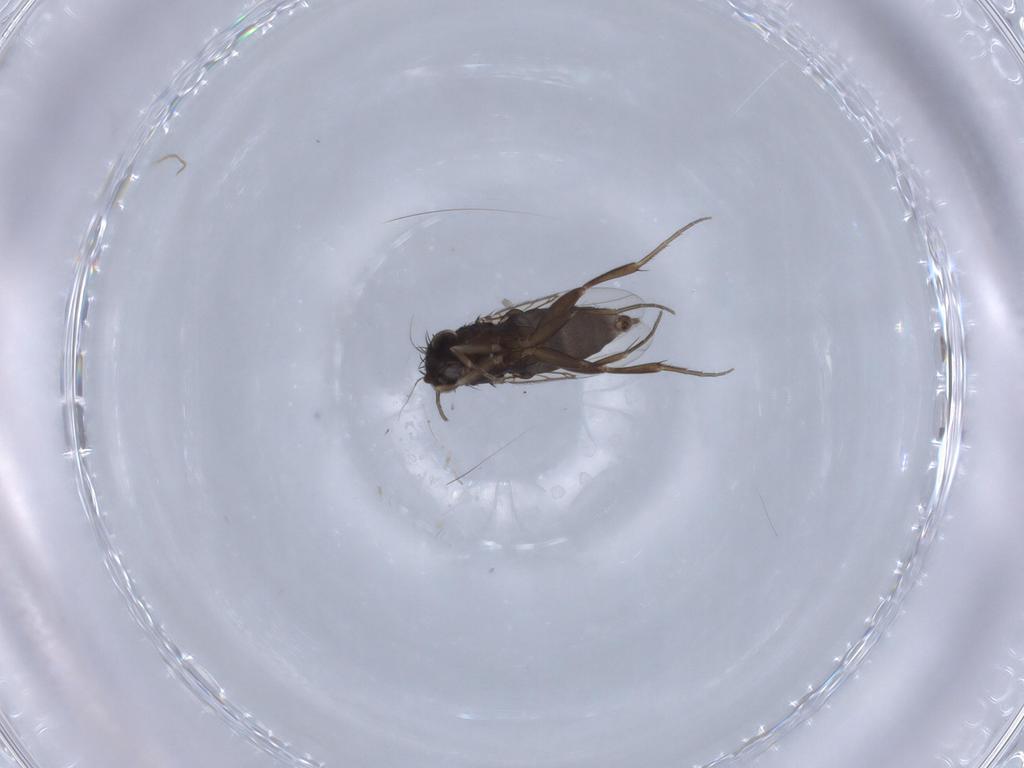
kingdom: Animalia
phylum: Arthropoda
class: Insecta
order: Diptera
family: Phoridae
